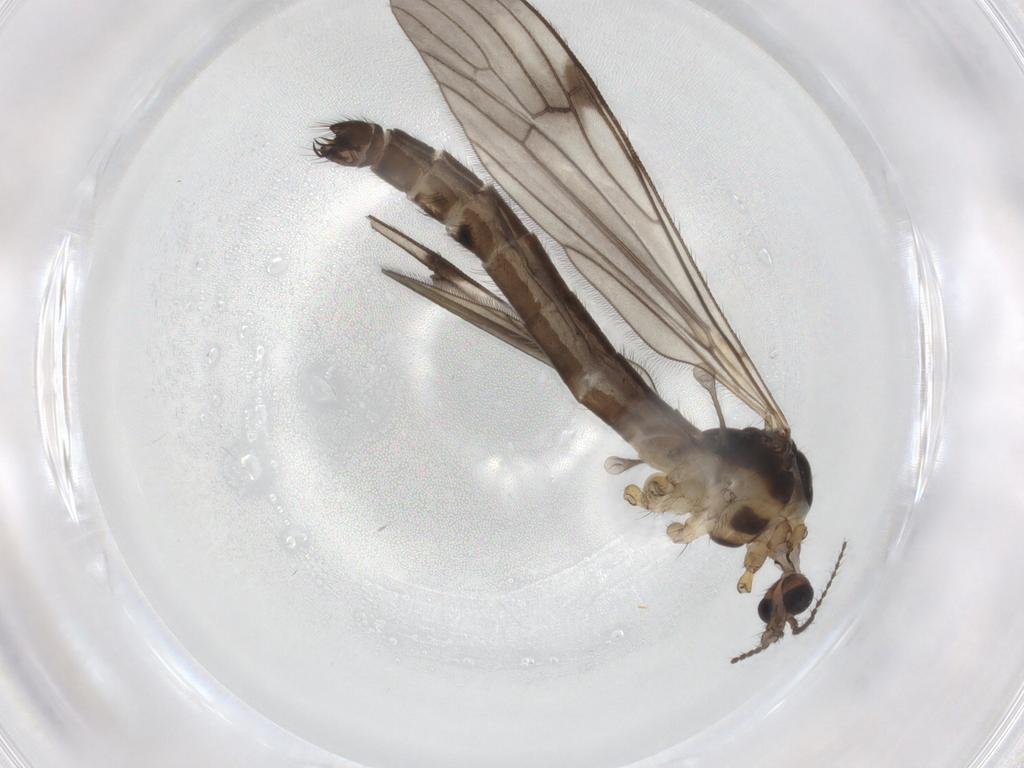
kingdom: Animalia
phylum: Arthropoda
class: Insecta
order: Diptera
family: Limoniidae
